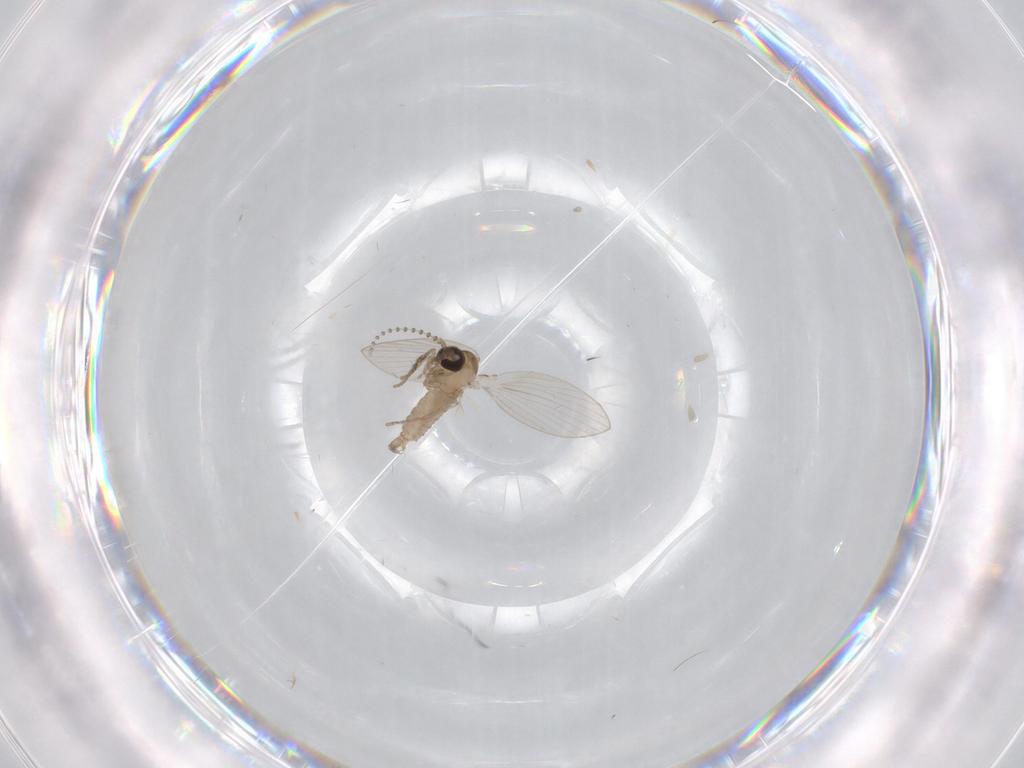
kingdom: Animalia
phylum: Arthropoda
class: Insecta
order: Diptera
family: Psychodidae
